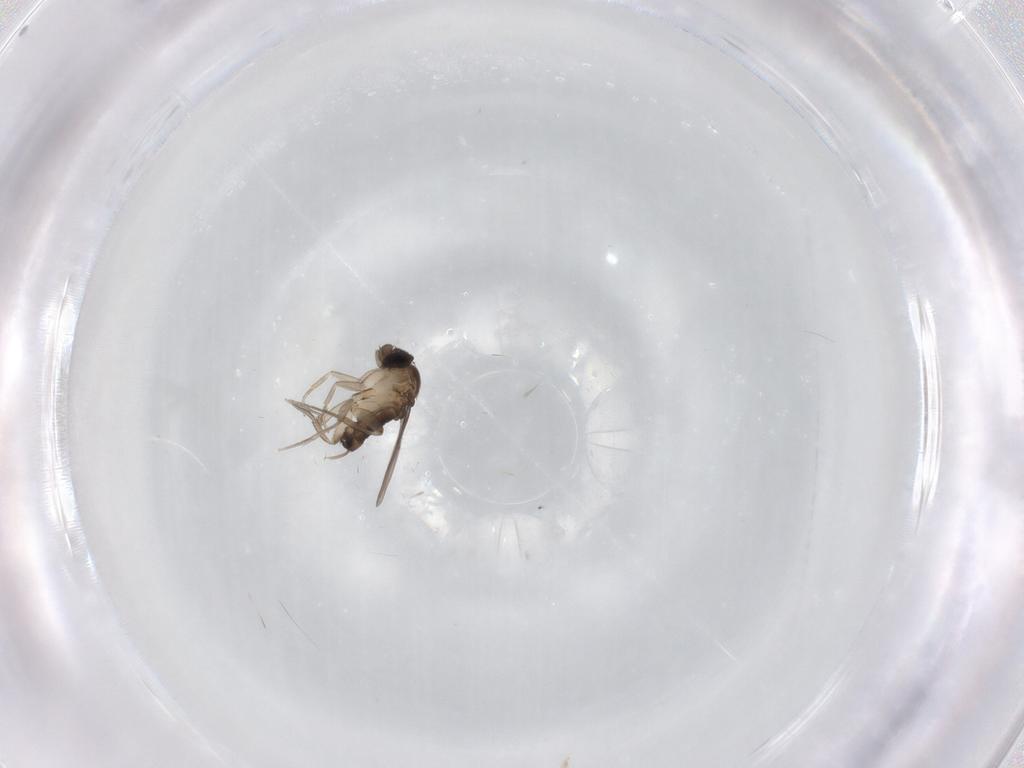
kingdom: Animalia
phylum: Arthropoda
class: Insecta
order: Diptera
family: Phoridae
